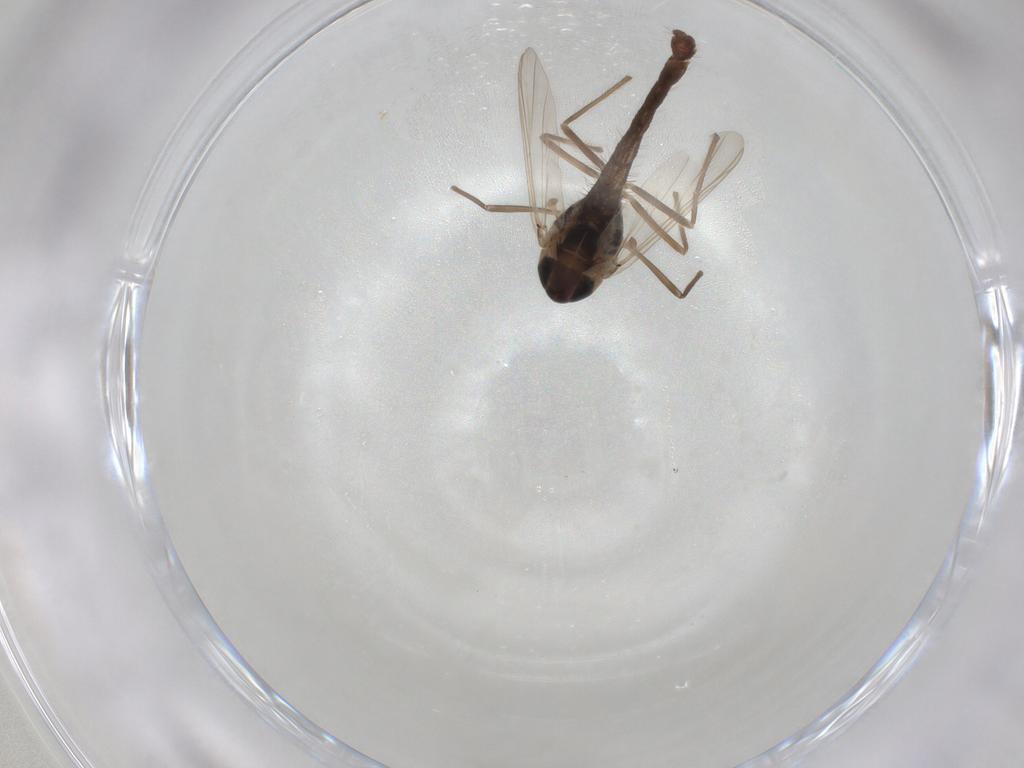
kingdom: Animalia
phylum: Arthropoda
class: Insecta
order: Diptera
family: Chironomidae
